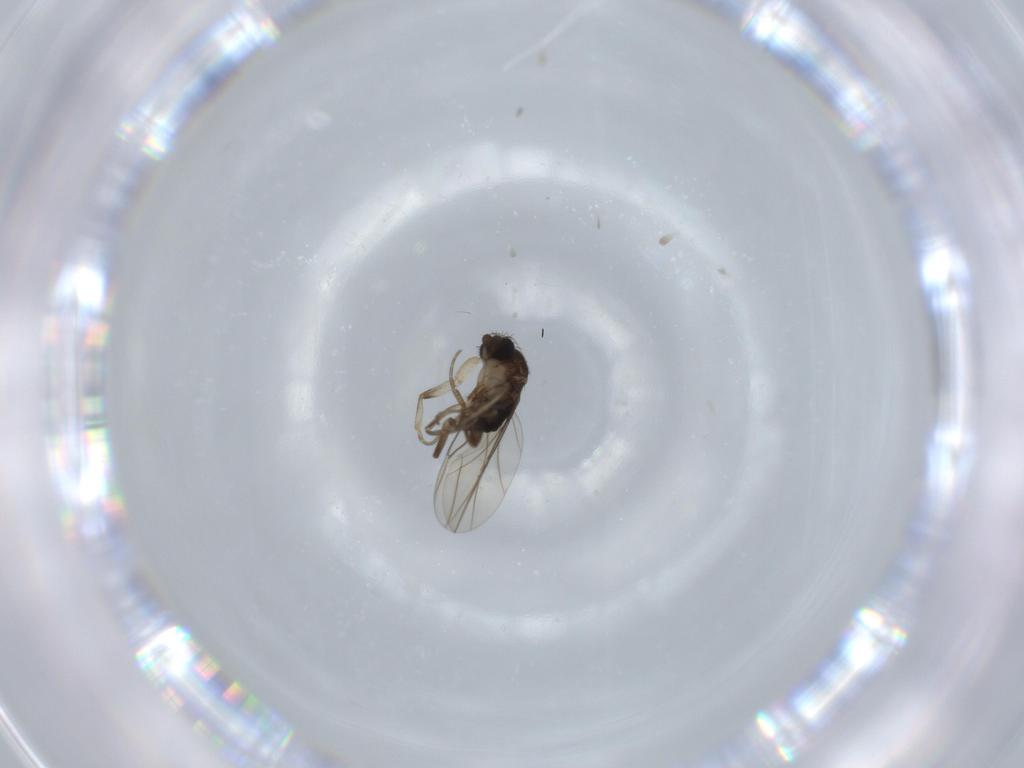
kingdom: Animalia
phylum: Arthropoda
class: Insecta
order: Diptera
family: Phoridae
